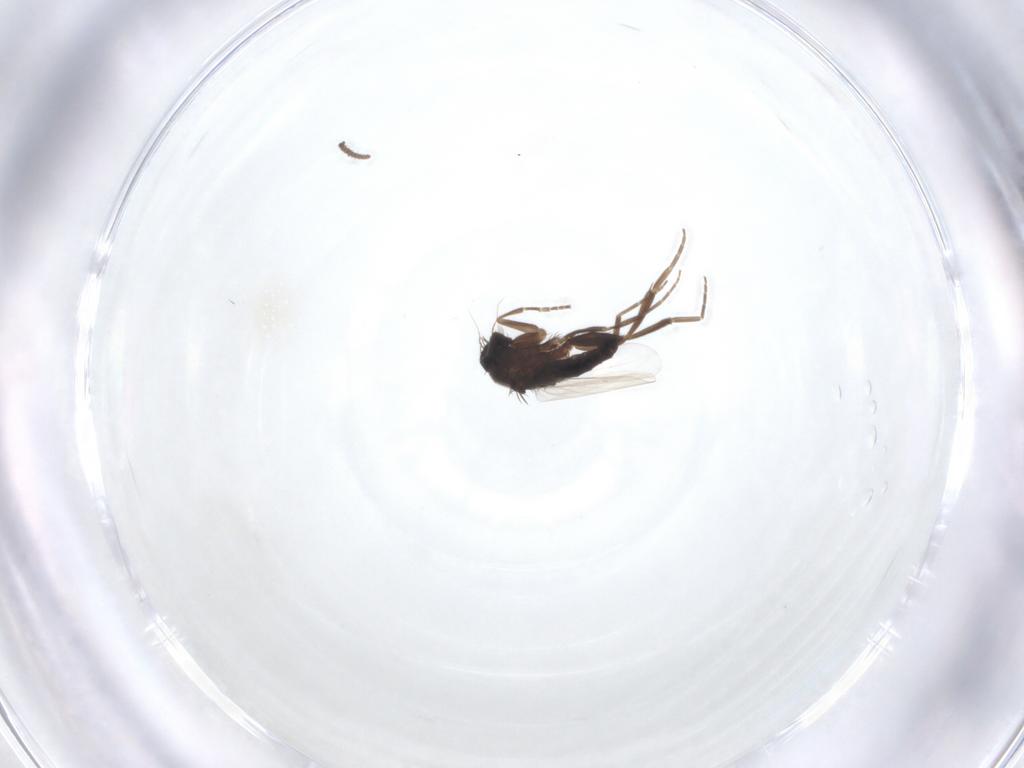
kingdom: Animalia
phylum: Arthropoda
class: Insecta
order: Diptera
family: Cecidomyiidae
